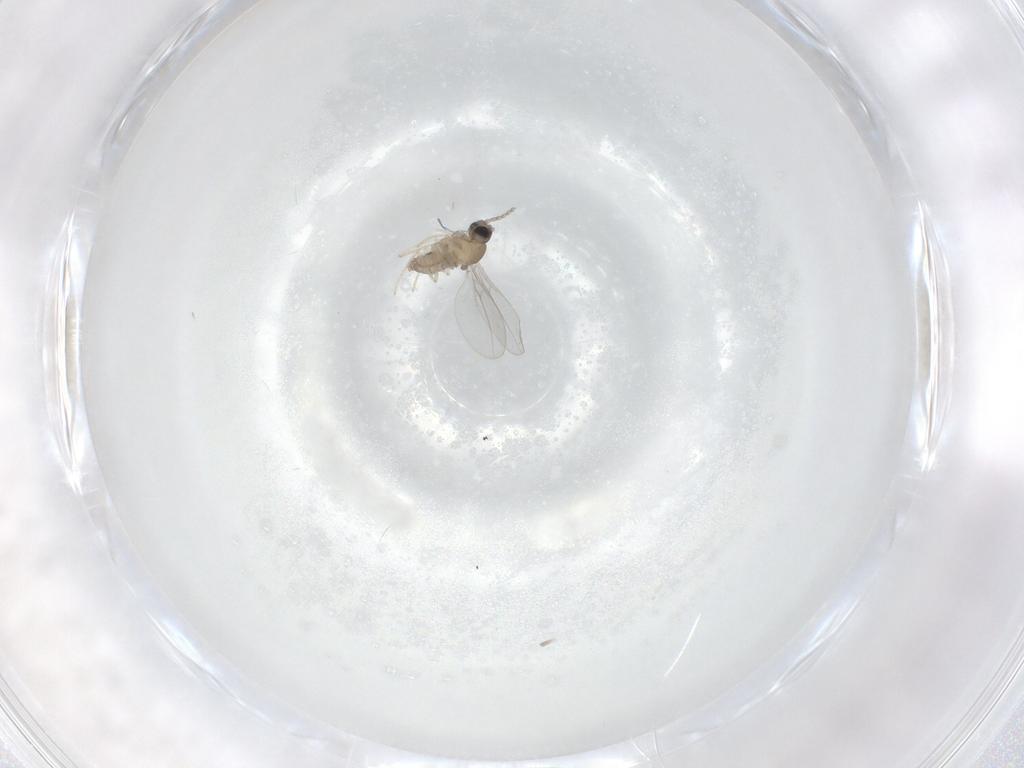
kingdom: Animalia
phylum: Arthropoda
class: Insecta
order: Diptera
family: Cecidomyiidae
